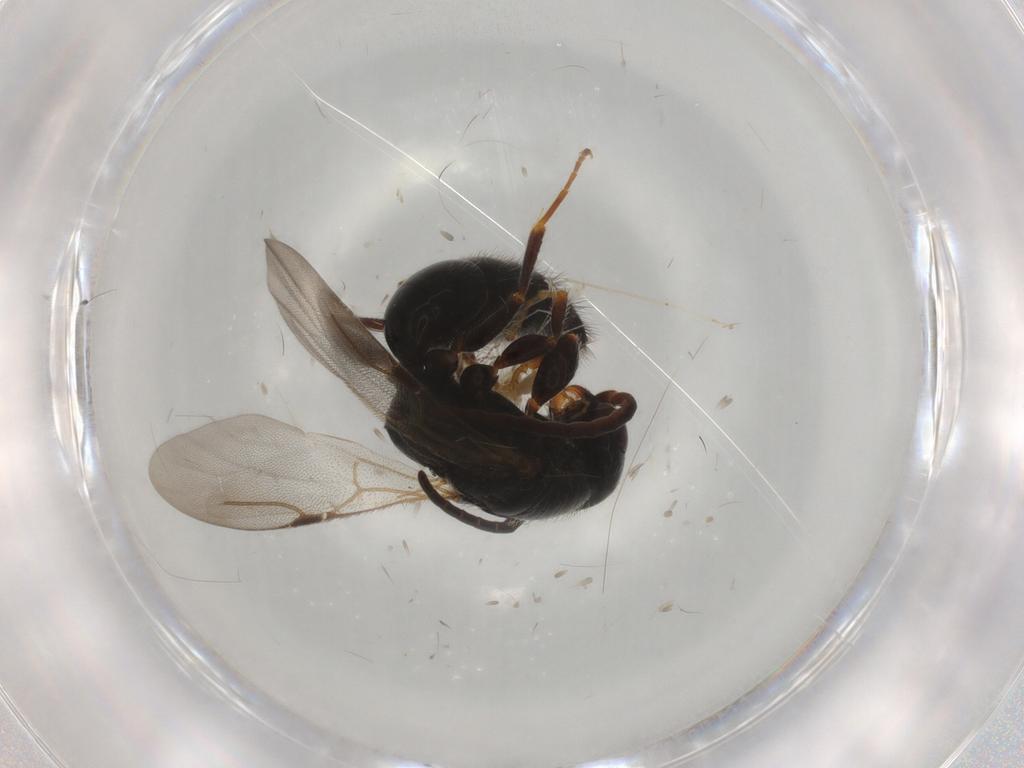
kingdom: Animalia
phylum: Arthropoda
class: Insecta
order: Hymenoptera
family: Bethylidae
